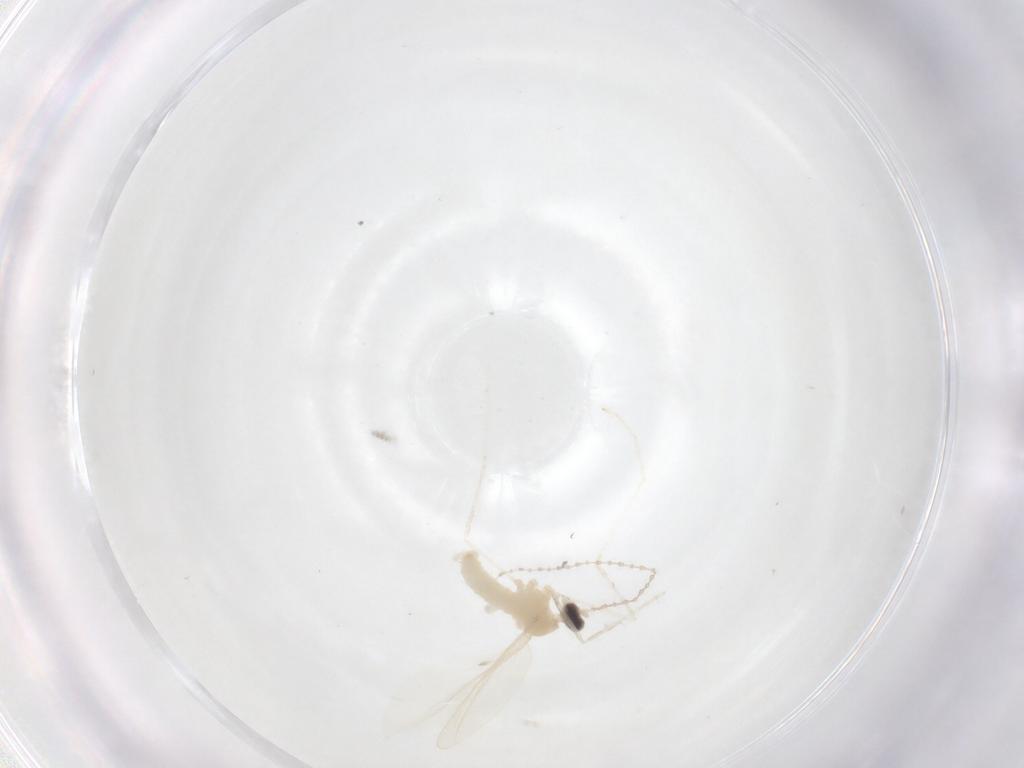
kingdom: Animalia
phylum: Arthropoda
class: Insecta
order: Diptera
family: Cecidomyiidae
